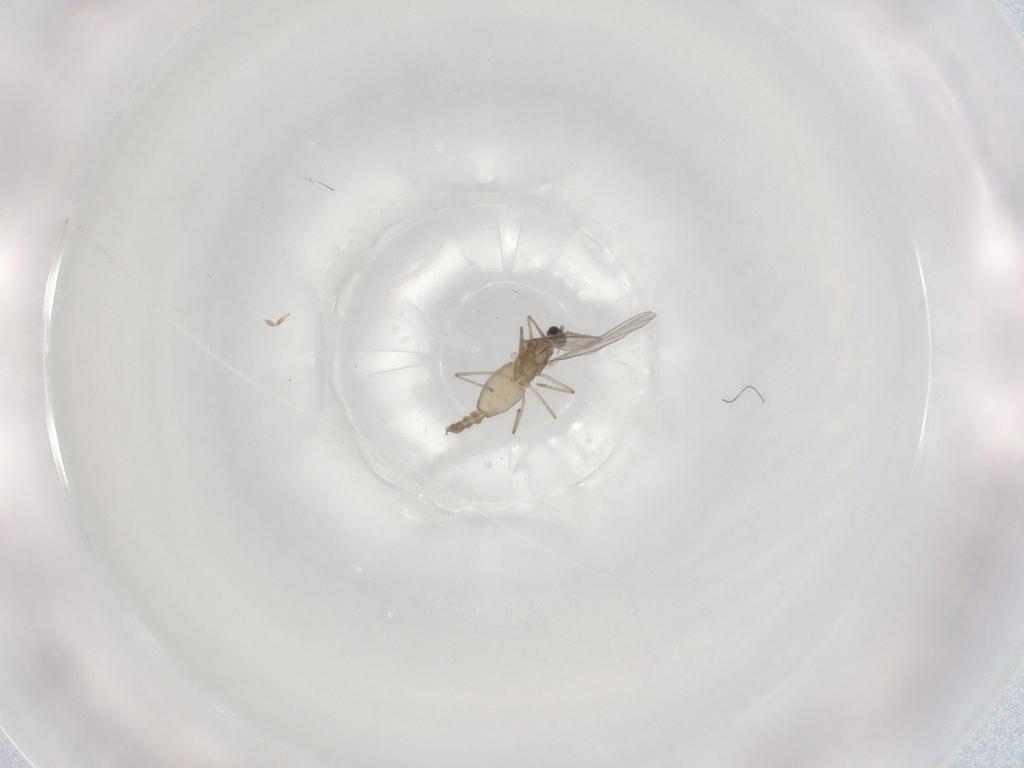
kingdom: Animalia
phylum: Arthropoda
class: Insecta
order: Diptera
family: Cecidomyiidae
